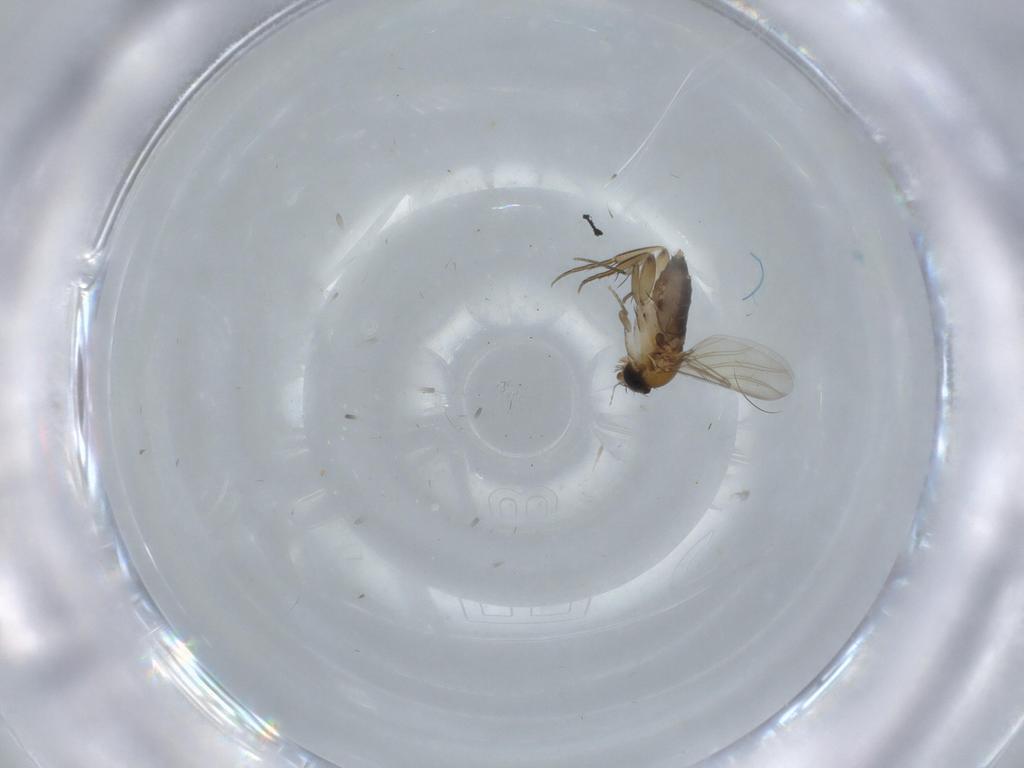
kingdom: Animalia
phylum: Arthropoda
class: Insecta
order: Diptera
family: Phoridae
